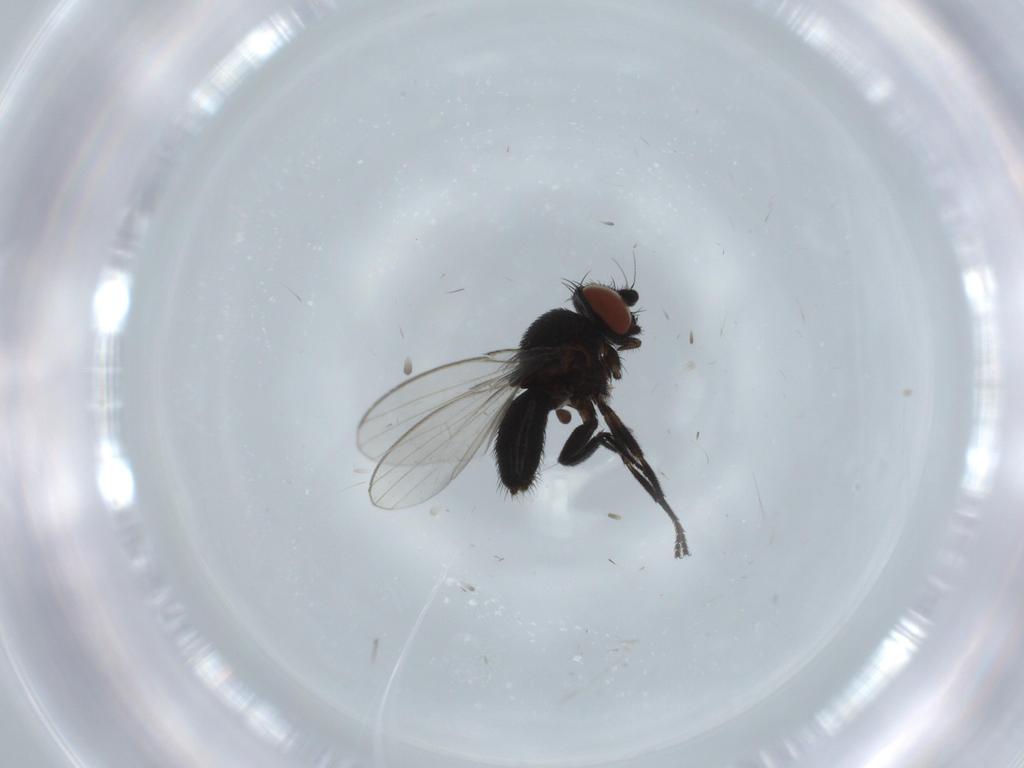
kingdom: Animalia
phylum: Arthropoda
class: Insecta
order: Diptera
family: Milichiidae
